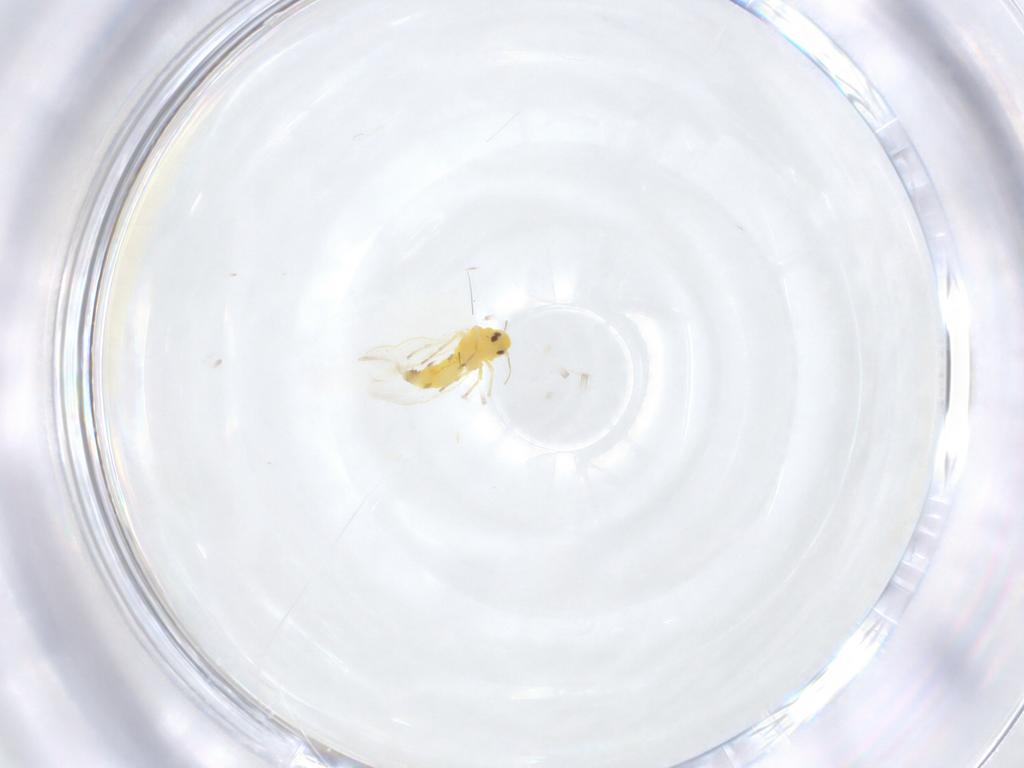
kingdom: Animalia
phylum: Arthropoda
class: Insecta
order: Hemiptera
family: Aleyrodidae
